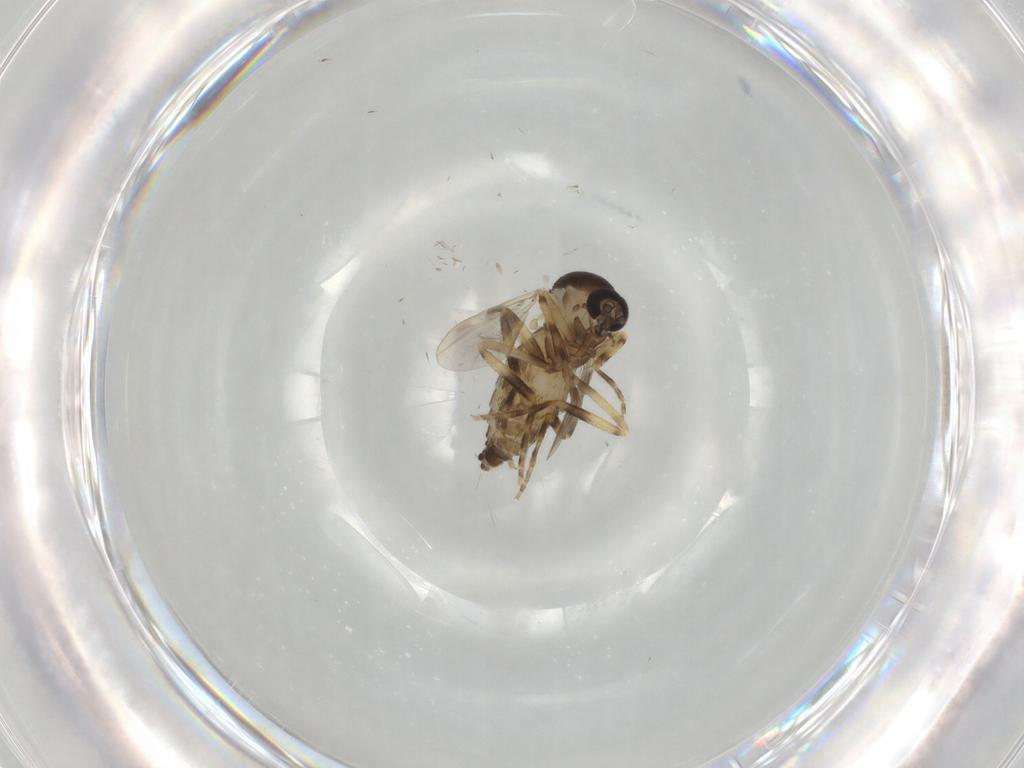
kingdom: Animalia
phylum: Arthropoda
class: Insecta
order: Diptera
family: Ceratopogonidae
